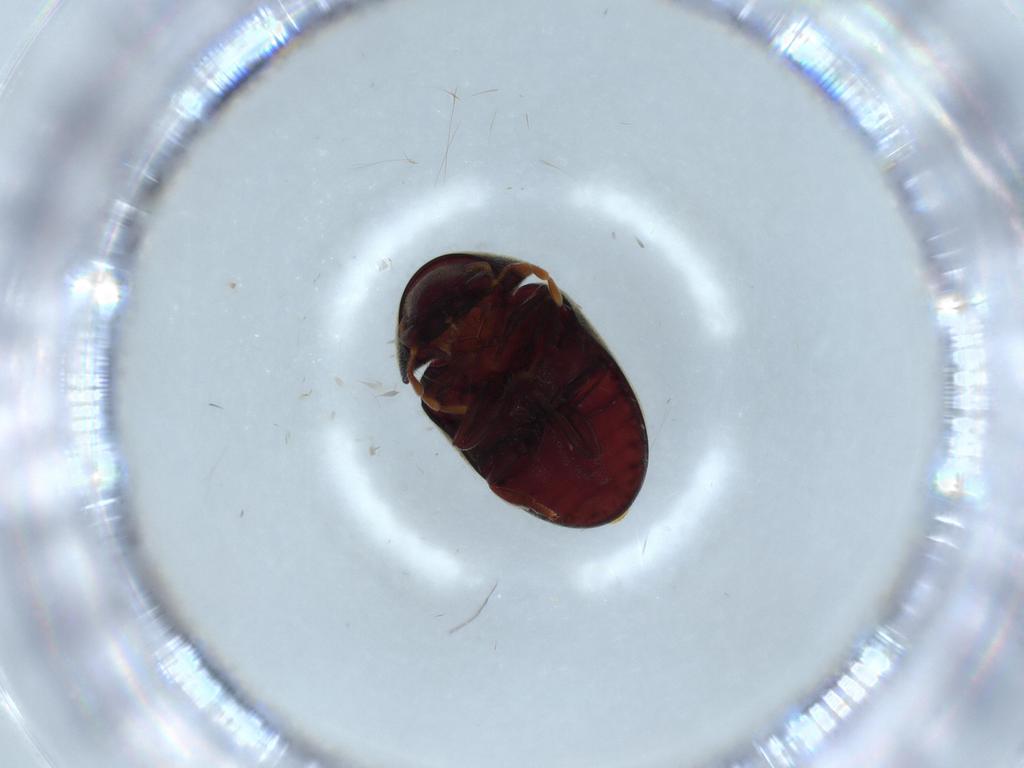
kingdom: Animalia
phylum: Arthropoda
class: Insecta
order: Coleoptera
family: Ptinidae
